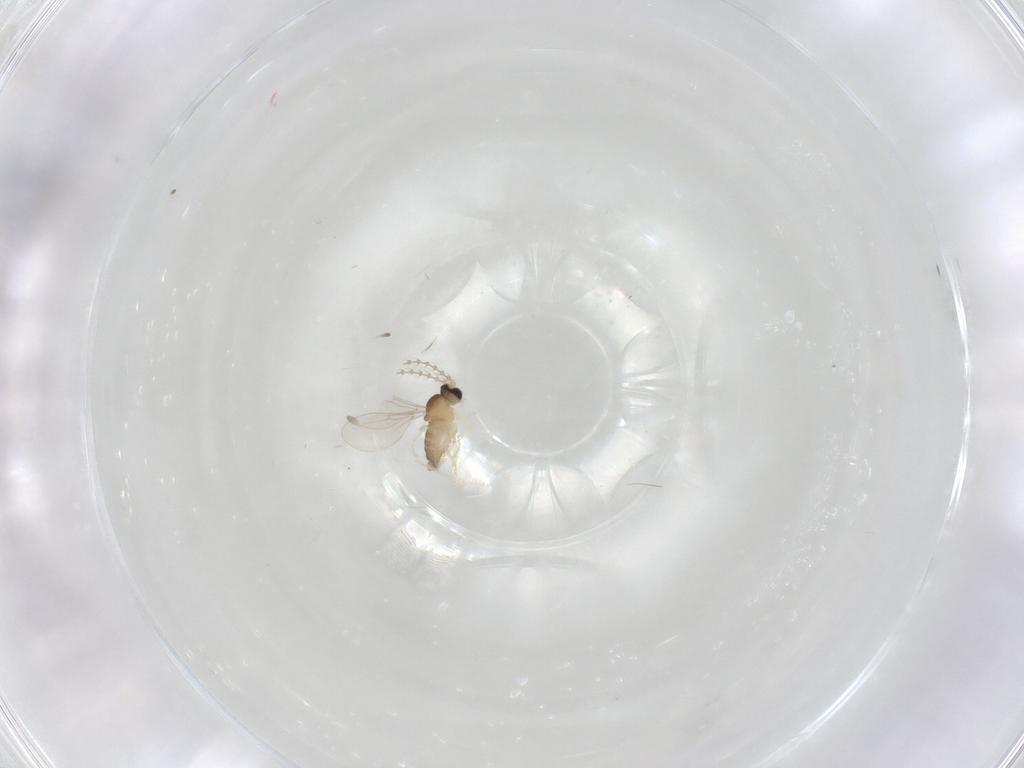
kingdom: Animalia
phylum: Arthropoda
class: Insecta
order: Diptera
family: Cecidomyiidae
